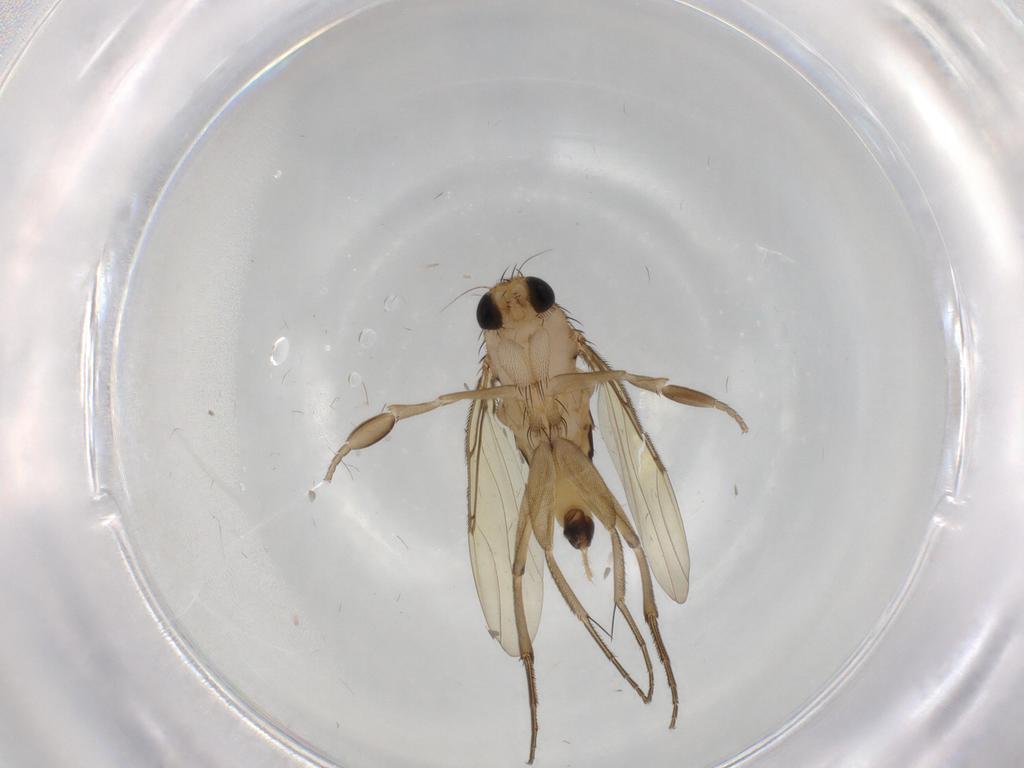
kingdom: Animalia
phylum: Arthropoda
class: Insecta
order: Diptera
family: Phoridae
